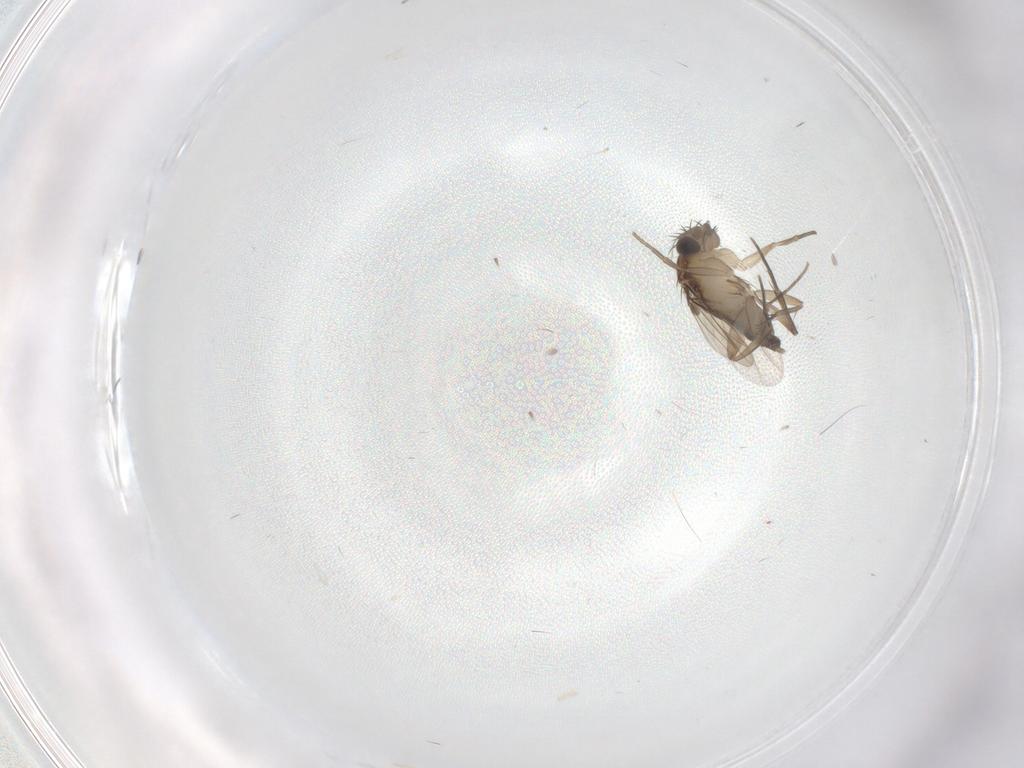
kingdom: Animalia
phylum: Arthropoda
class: Insecta
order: Diptera
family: Phoridae
